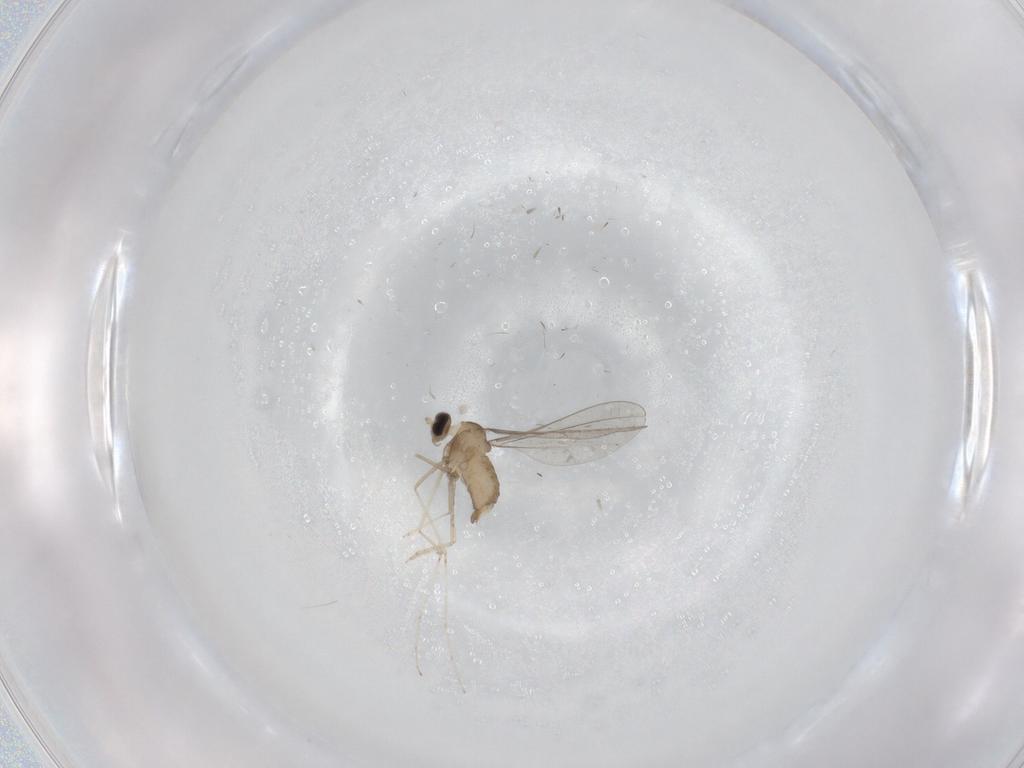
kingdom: Animalia
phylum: Arthropoda
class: Insecta
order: Diptera
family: Cecidomyiidae
